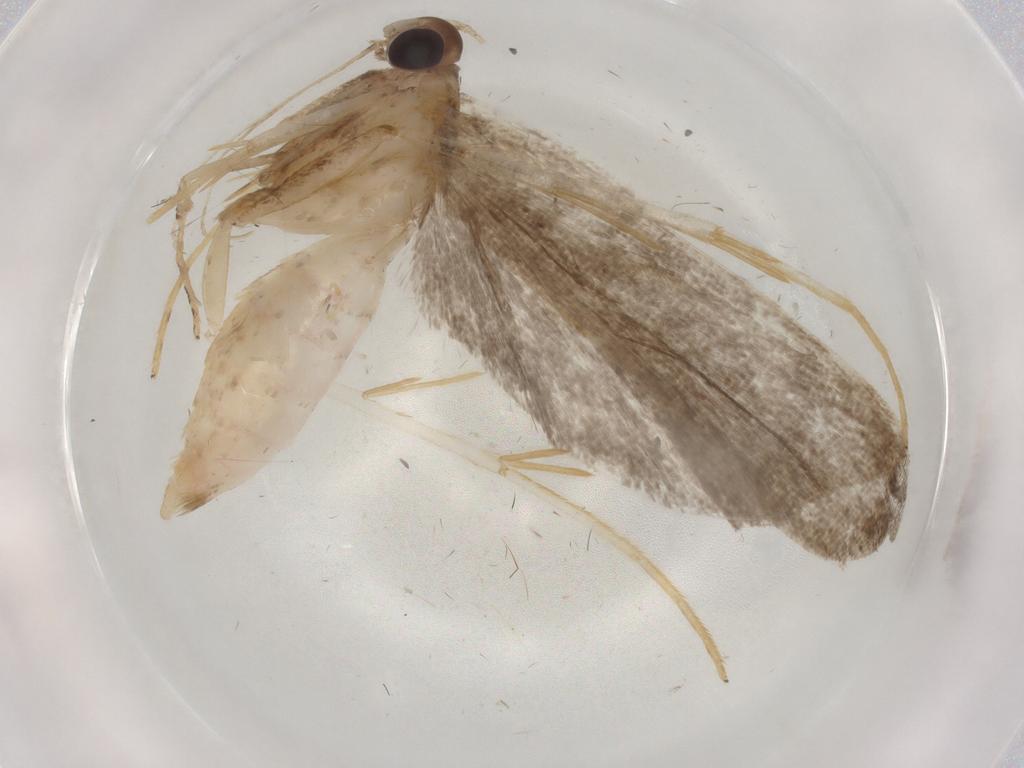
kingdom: Animalia
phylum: Arthropoda
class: Insecta
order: Lepidoptera
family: Cosmopterigidae
